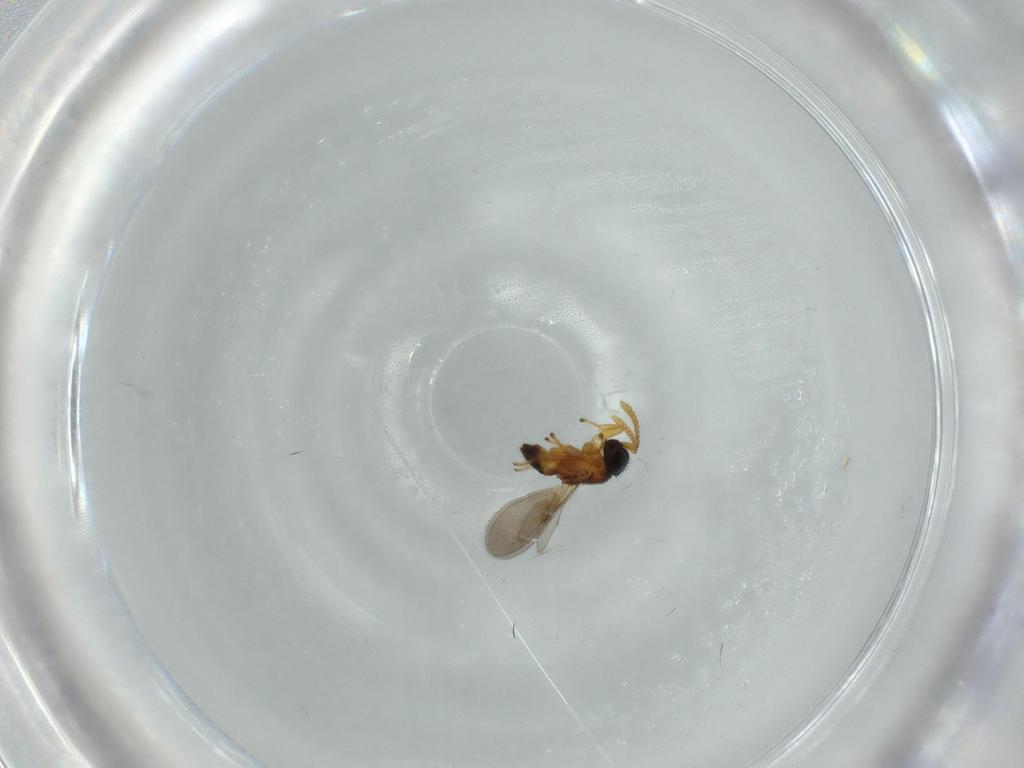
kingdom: Animalia
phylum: Arthropoda
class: Insecta
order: Hymenoptera
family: Encyrtidae
